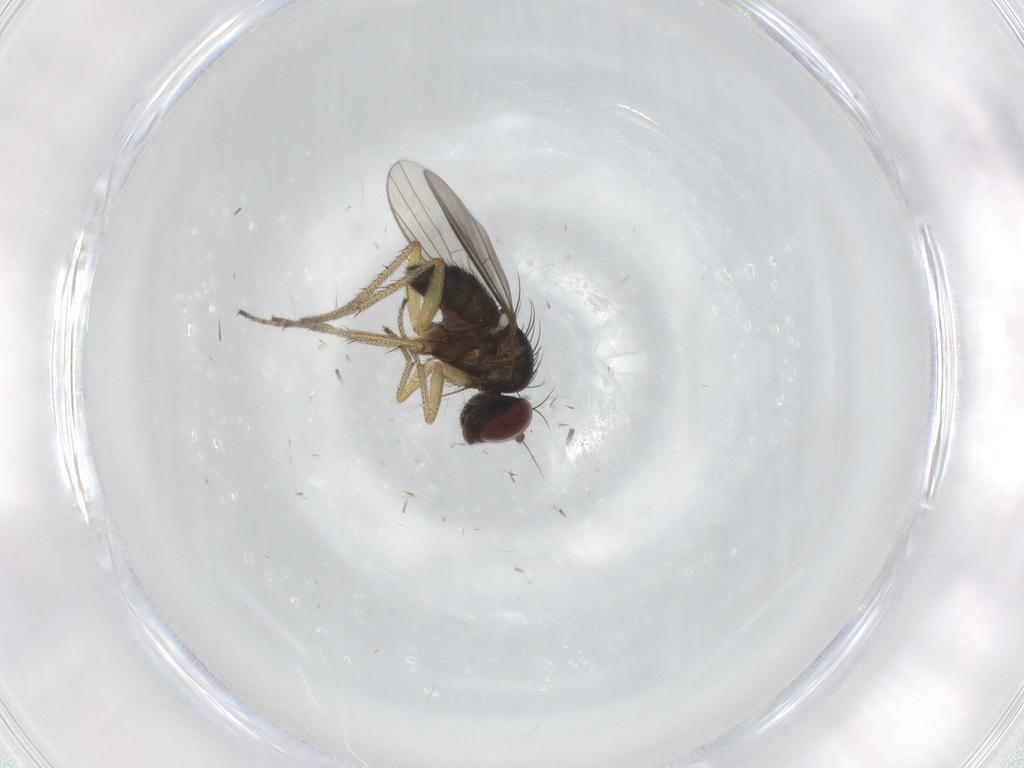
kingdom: Animalia
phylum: Arthropoda
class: Insecta
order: Diptera
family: Dolichopodidae
